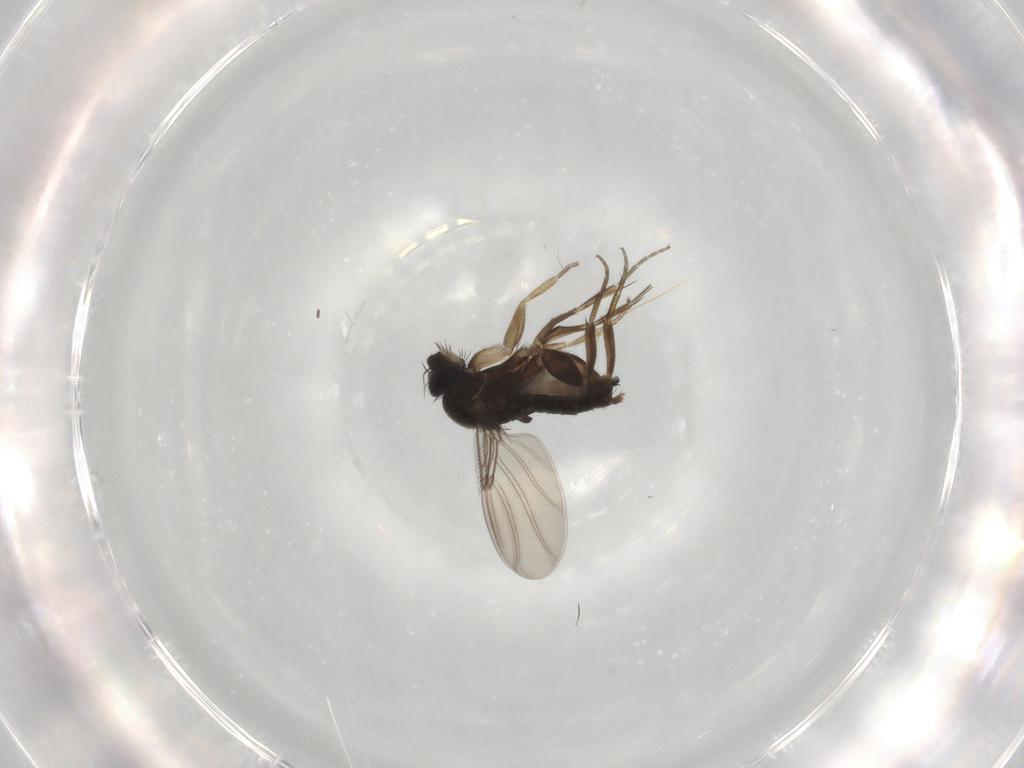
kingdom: Animalia
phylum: Arthropoda
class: Insecta
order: Diptera
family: Phoridae
